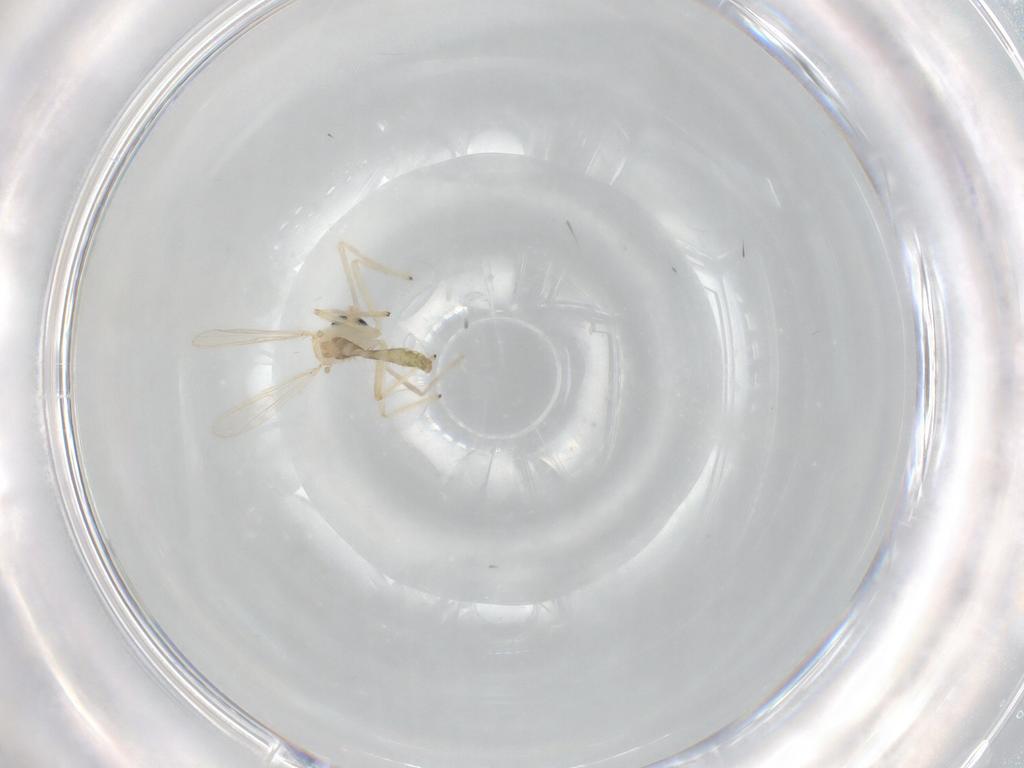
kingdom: Animalia
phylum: Arthropoda
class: Insecta
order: Diptera
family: Chironomidae
